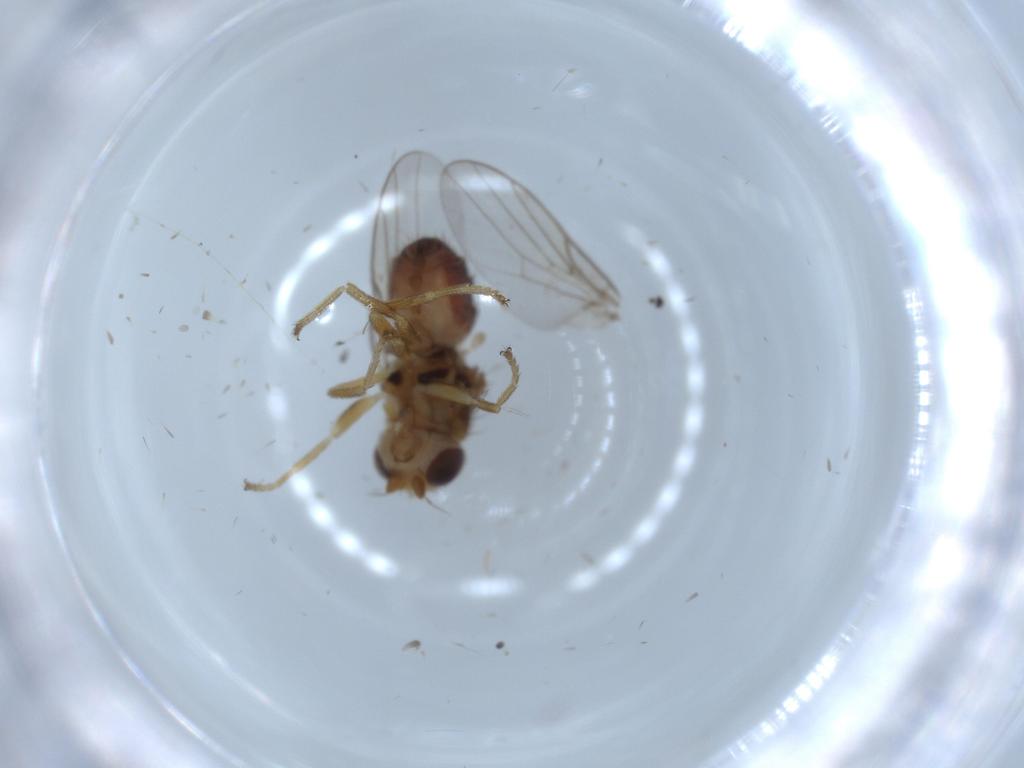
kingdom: Animalia
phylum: Arthropoda
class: Insecta
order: Diptera
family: Chloropidae
